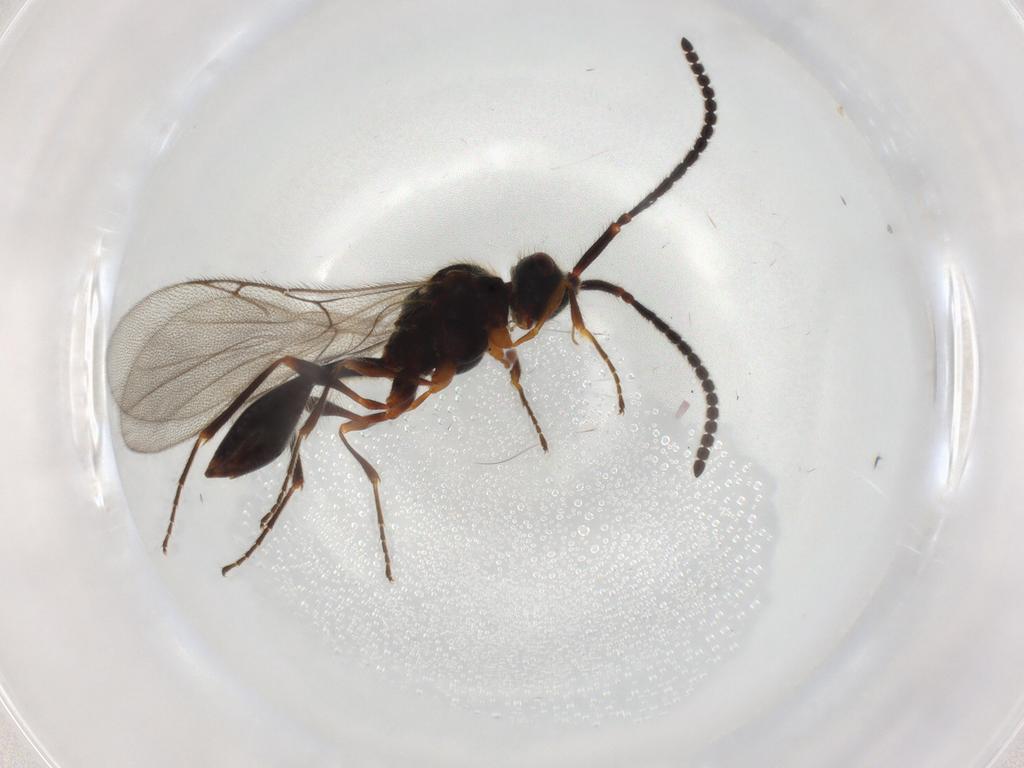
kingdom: Animalia
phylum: Arthropoda
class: Insecta
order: Hymenoptera
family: Diapriidae
